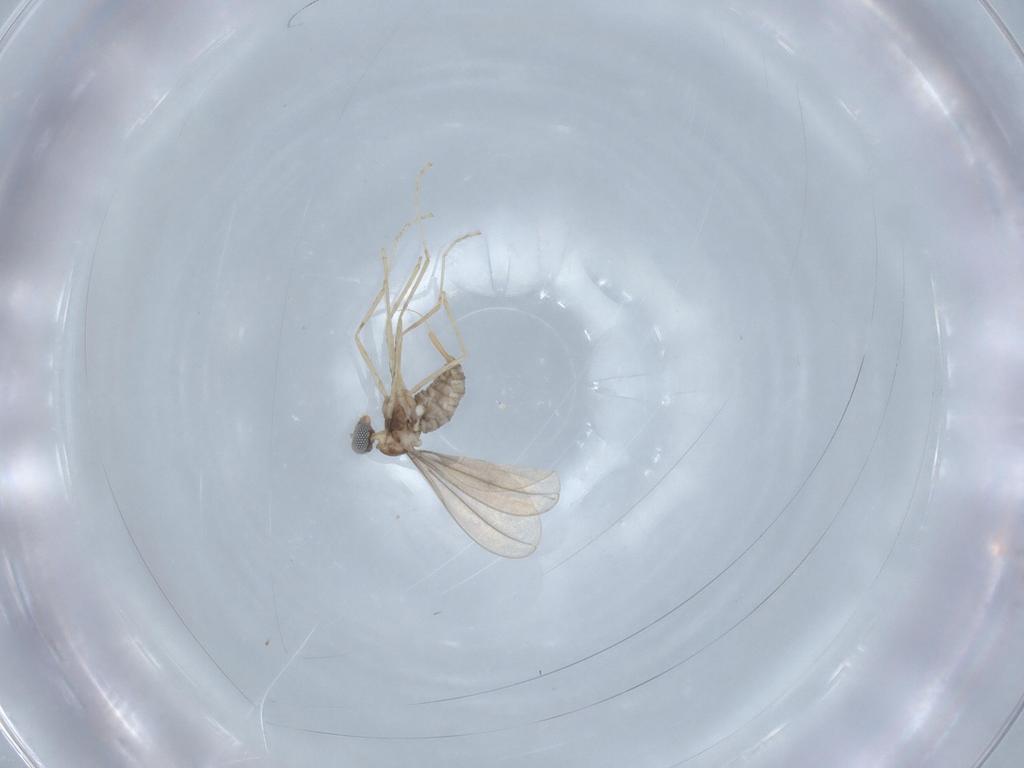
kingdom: Animalia
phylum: Arthropoda
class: Insecta
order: Diptera
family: Cecidomyiidae
